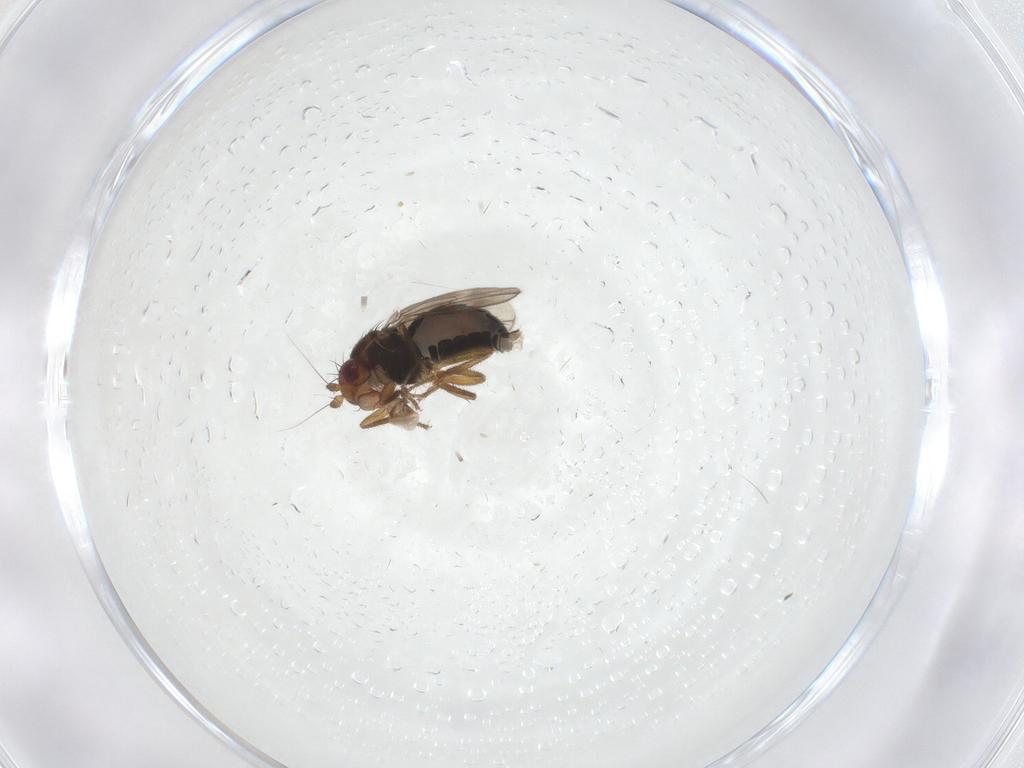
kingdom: Animalia
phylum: Arthropoda
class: Insecta
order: Diptera
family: Sphaeroceridae
